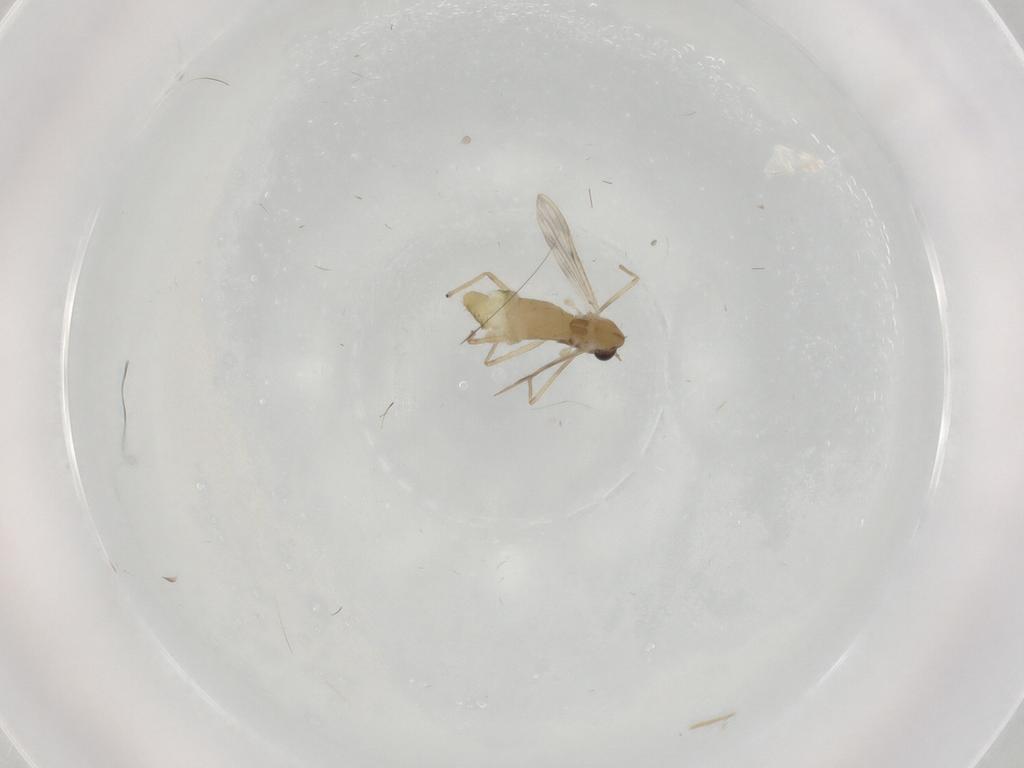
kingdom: Animalia
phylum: Arthropoda
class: Insecta
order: Diptera
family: Chironomidae
